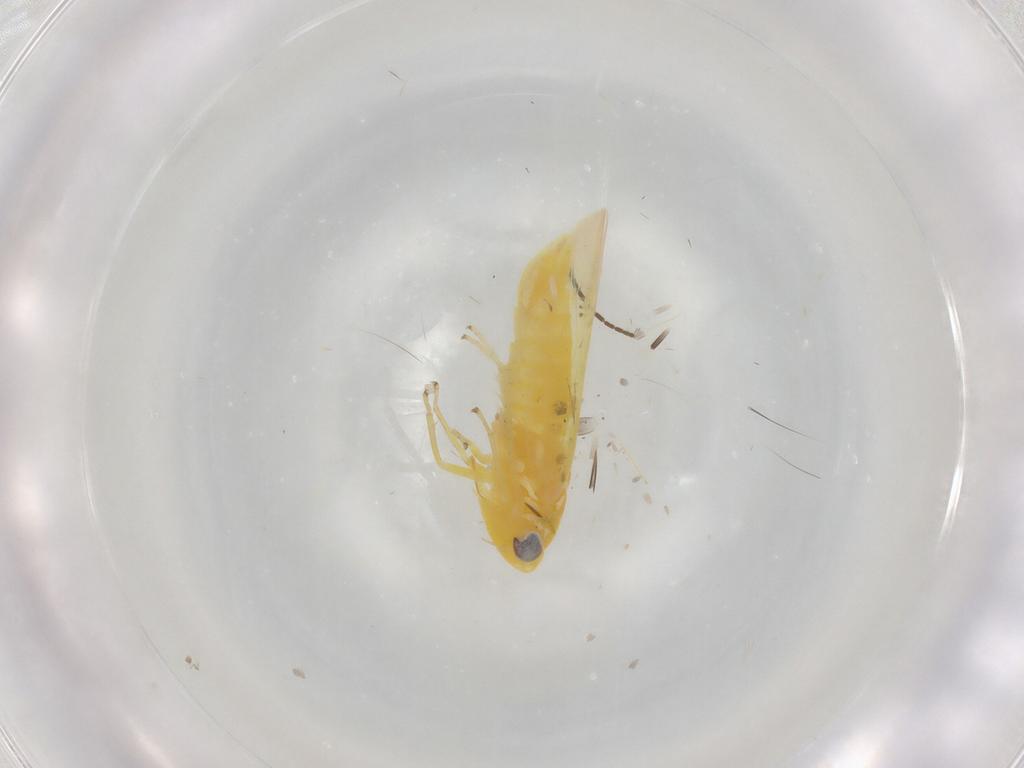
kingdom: Animalia
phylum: Arthropoda
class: Insecta
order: Hemiptera
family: Cicadellidae
